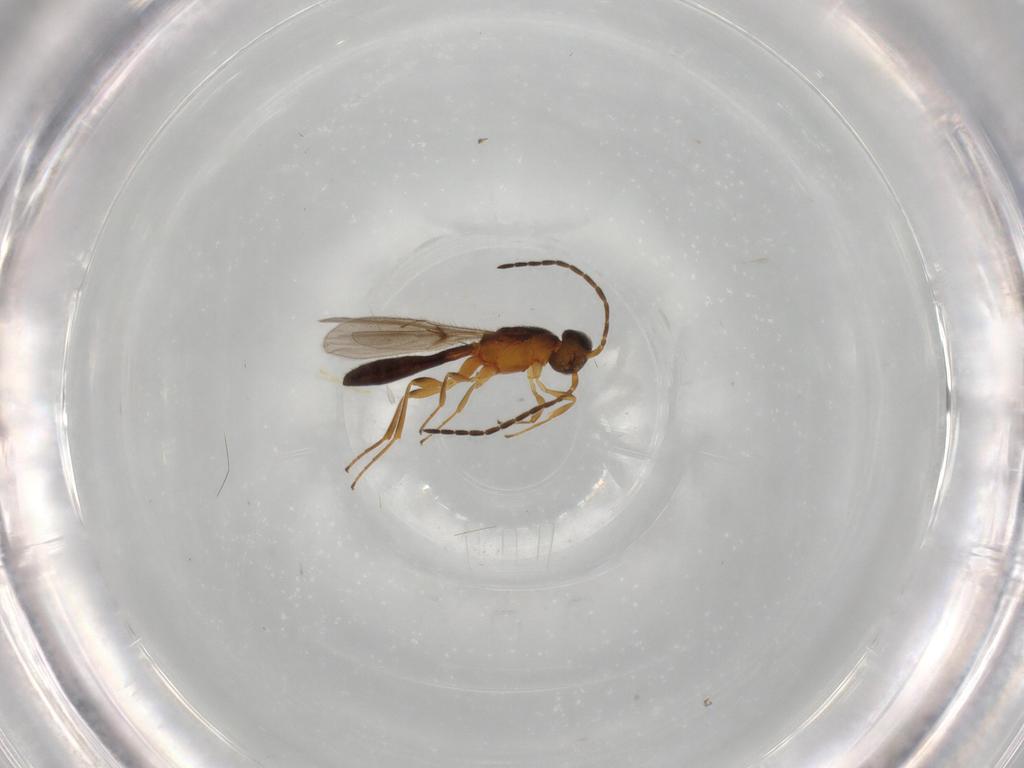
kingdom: Animalia
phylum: Arthropoda
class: Insecta
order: Hymenoptera
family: Scelionidae
